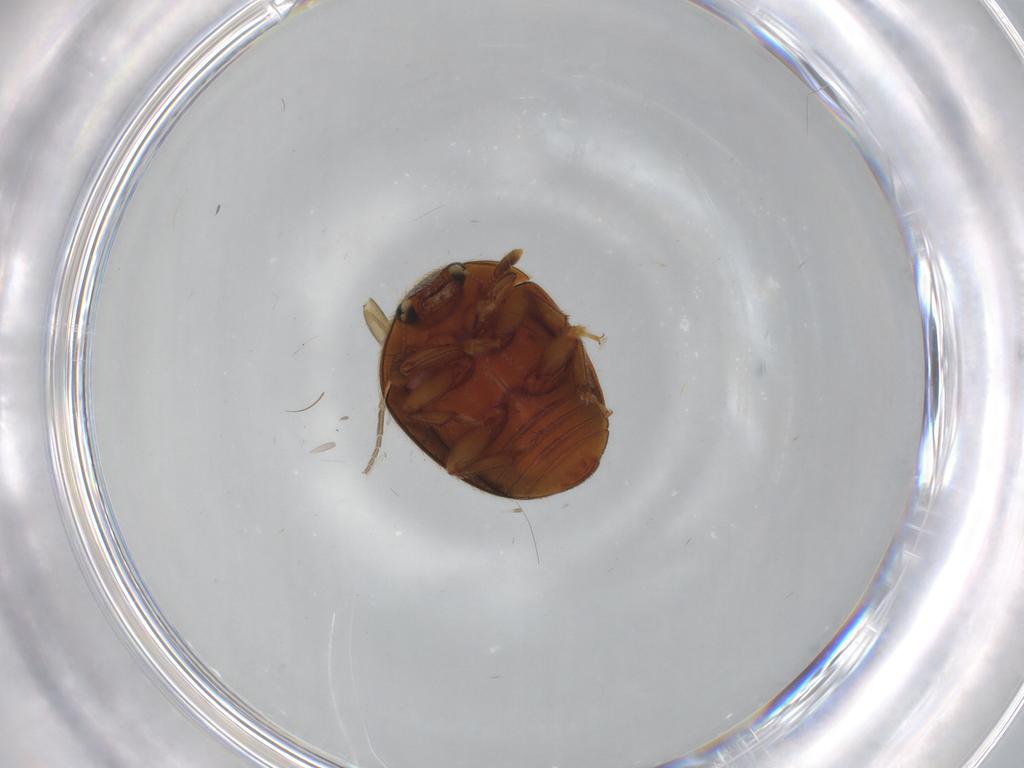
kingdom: Animalia
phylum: Arthropoda
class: Insecta
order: Coleoptera
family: Nitidulidae
